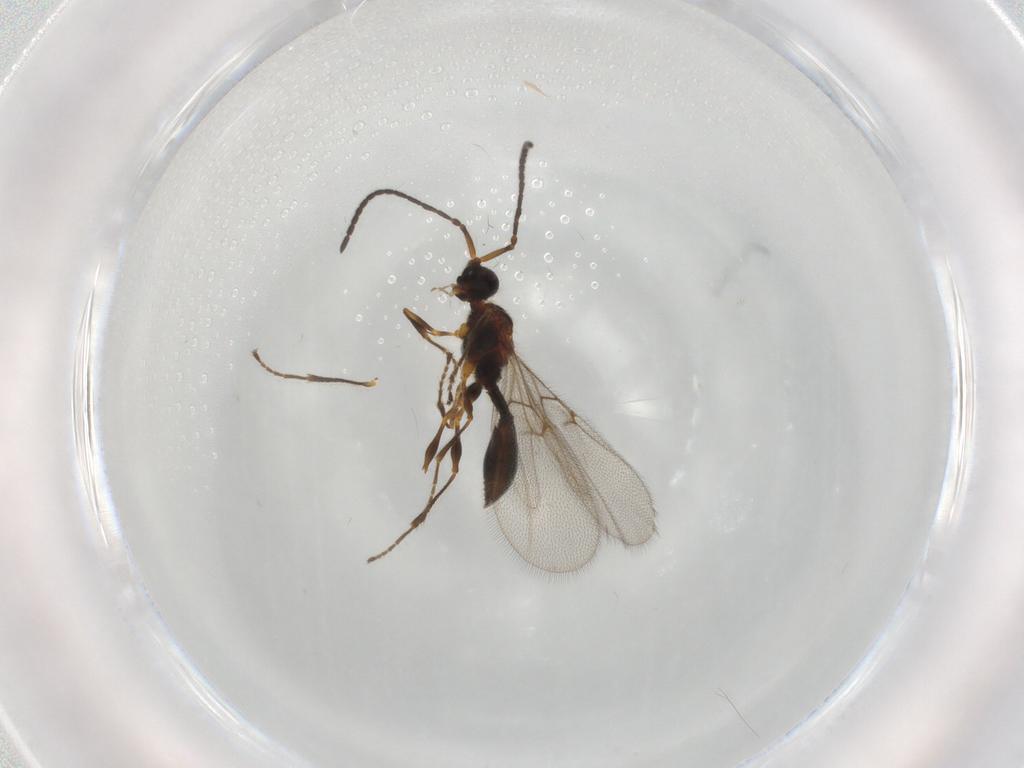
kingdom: Animalia
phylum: Arthropoda
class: Insecta
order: Hymenoptera
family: Diapriidae
